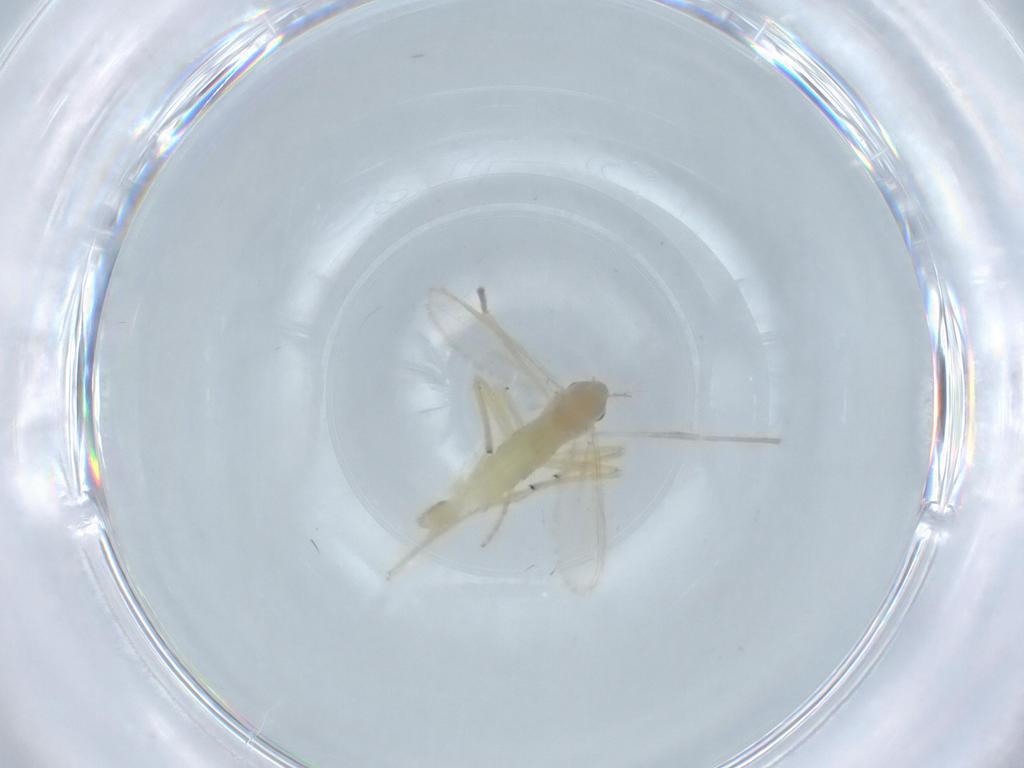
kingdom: Animalia
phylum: Arthropoda
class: Insecta
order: Diptera
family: Chironomidae
